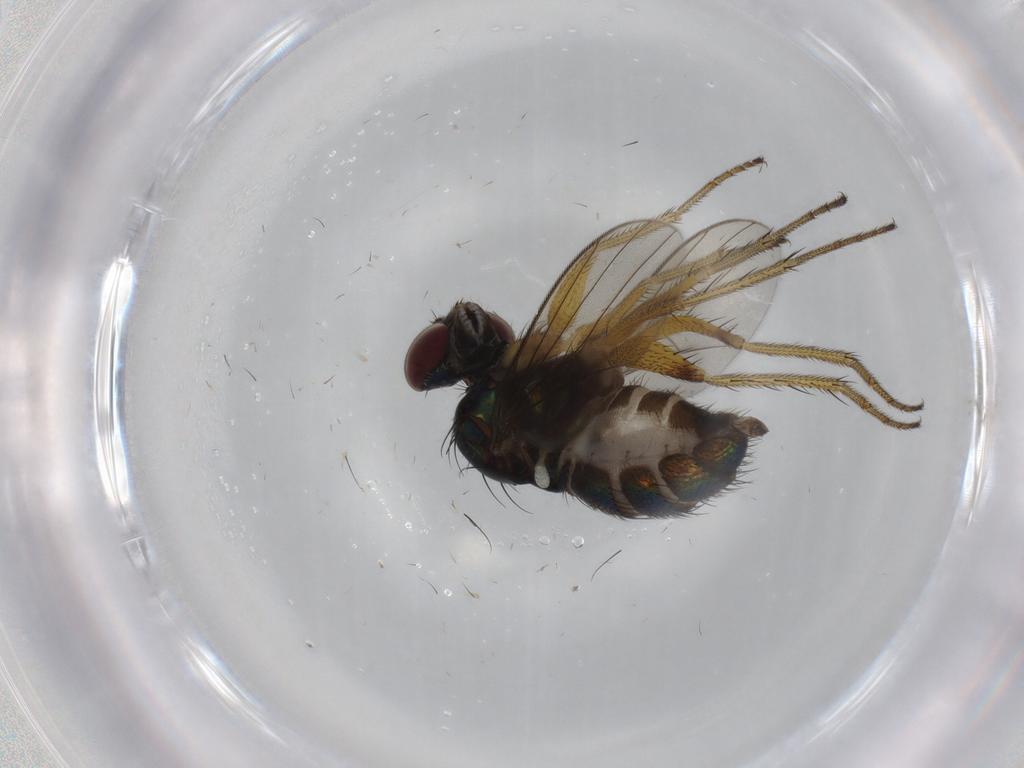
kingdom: Animalia
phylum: Arthropoda
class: Insecta
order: Diptera
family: Dolichopodidae
